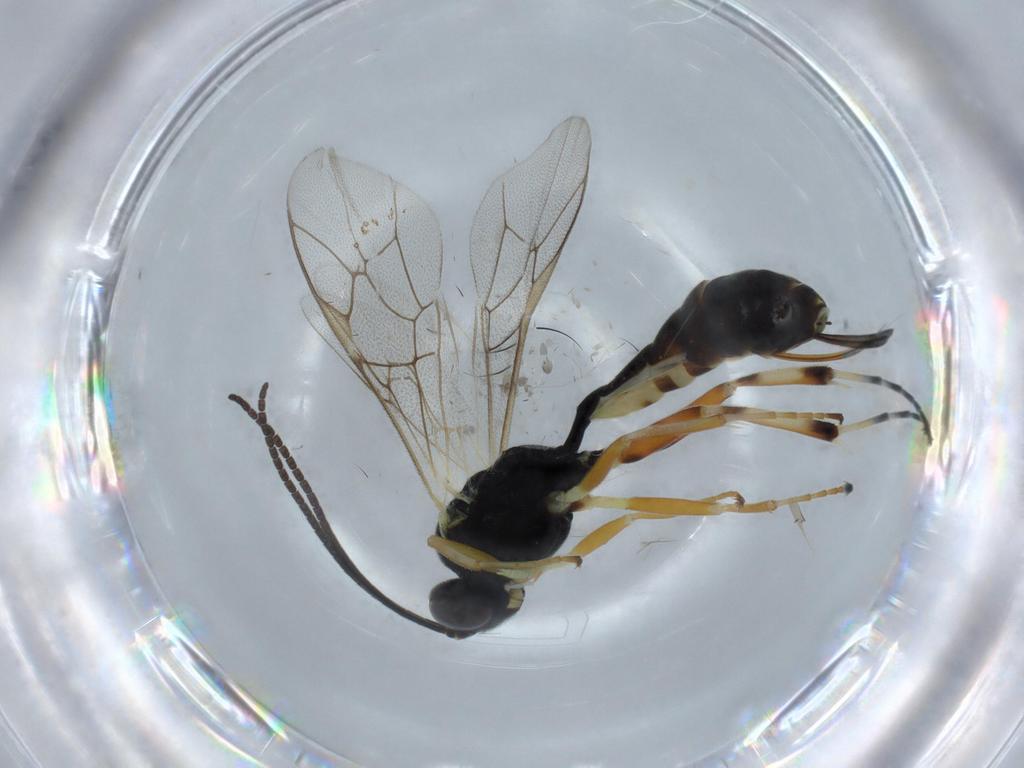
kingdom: Animalia
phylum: Arthropoda
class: Insecta
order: Hymenoptera
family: Ichneumonidae
